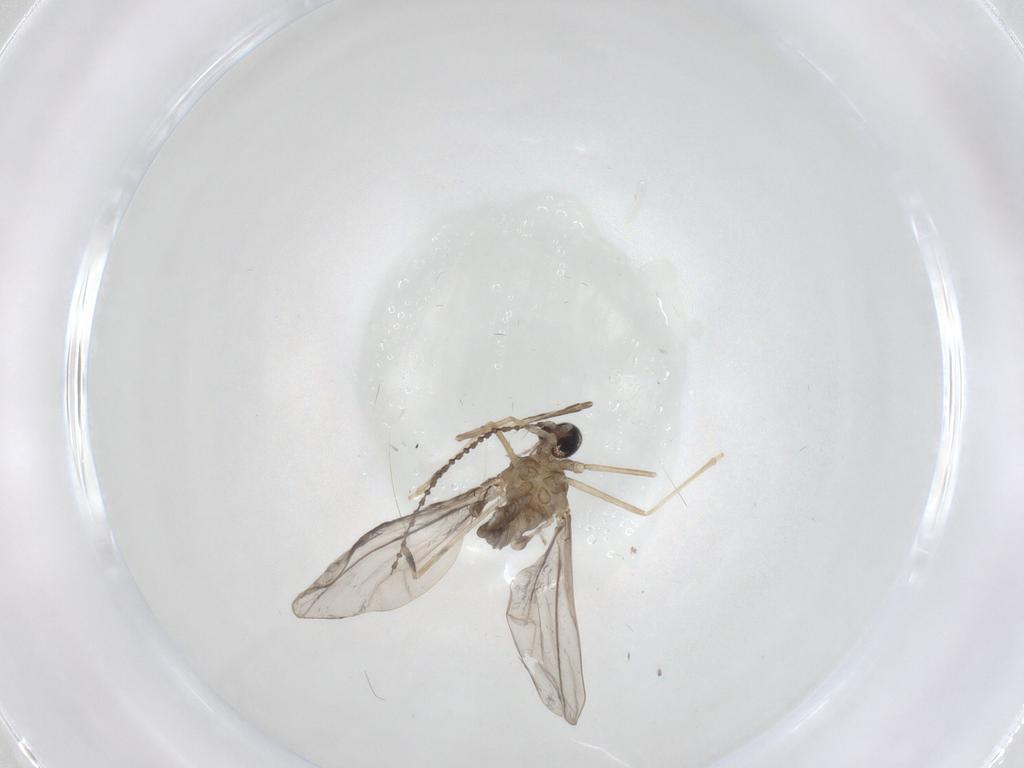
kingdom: Animalia
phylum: Arthropoda
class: Insecta
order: Diptera
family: Cecidomyiidae
